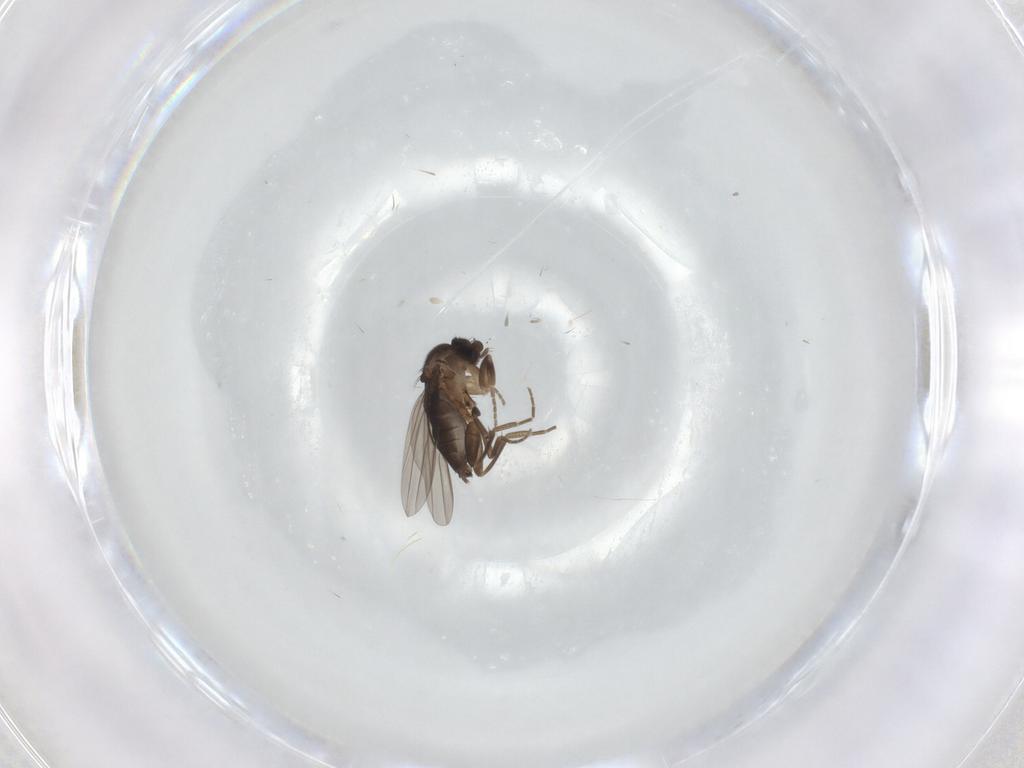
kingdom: Animalia
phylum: Arthropoda
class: Insecta
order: Diptera
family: Phoridae
